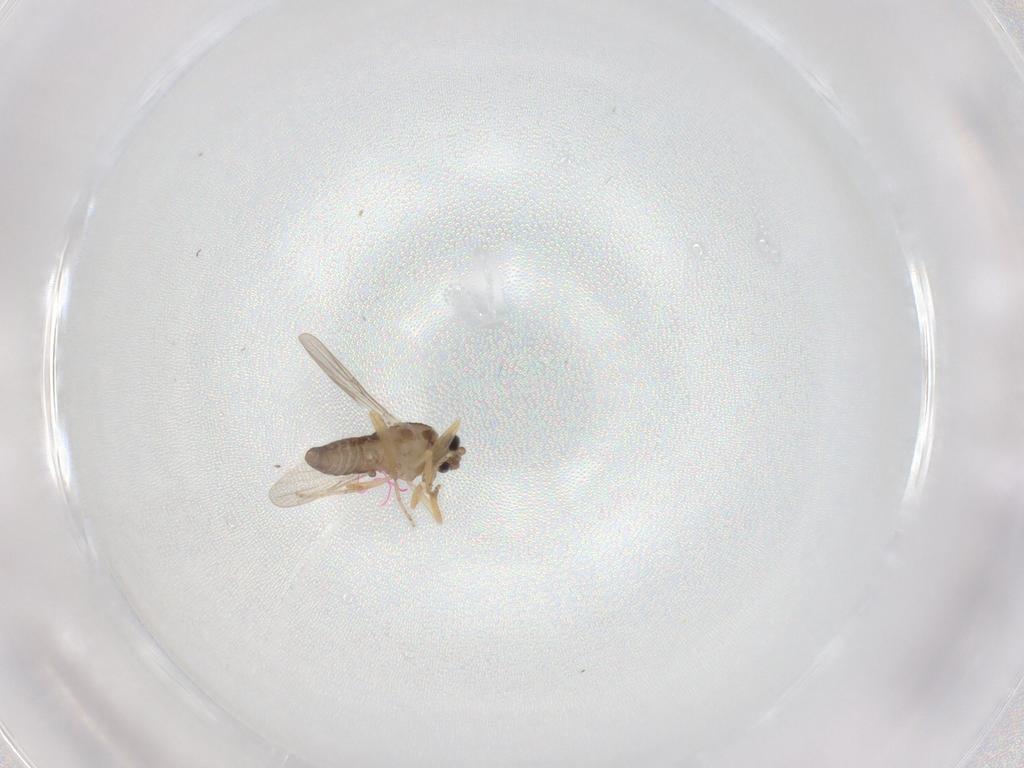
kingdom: Animalia
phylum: Arthropoda
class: Insecta
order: Diptera
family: Ceratopogonidae
